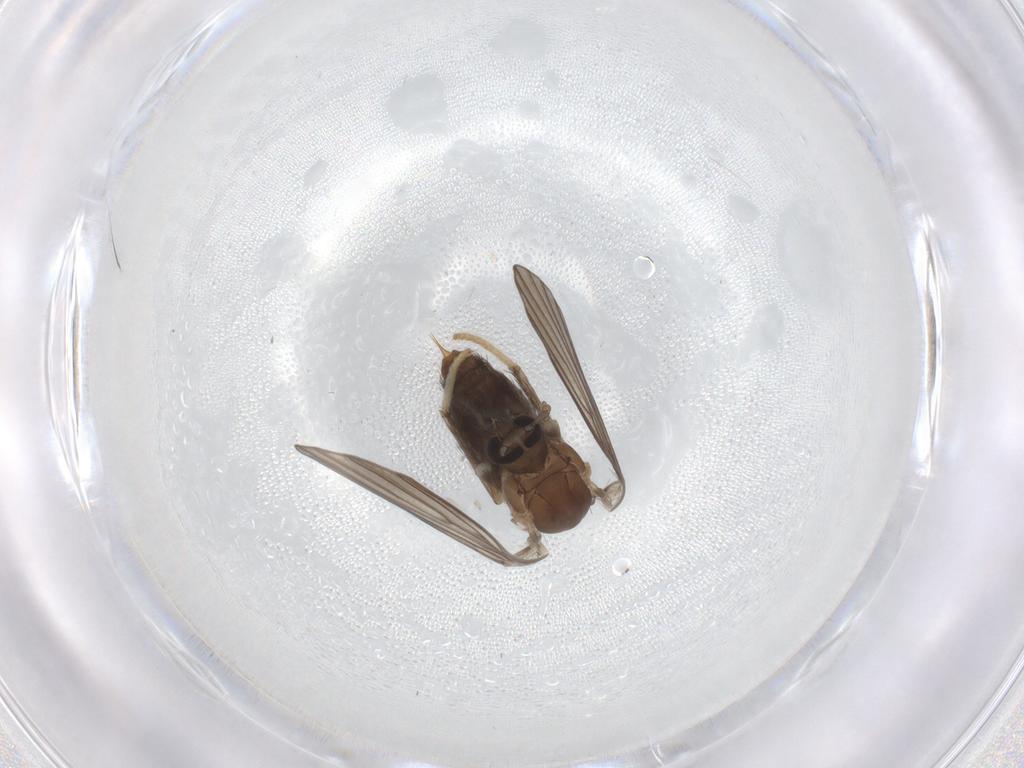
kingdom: Animalia
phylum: Arthropoda
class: Insecta
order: Diptera
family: Psychodidae
